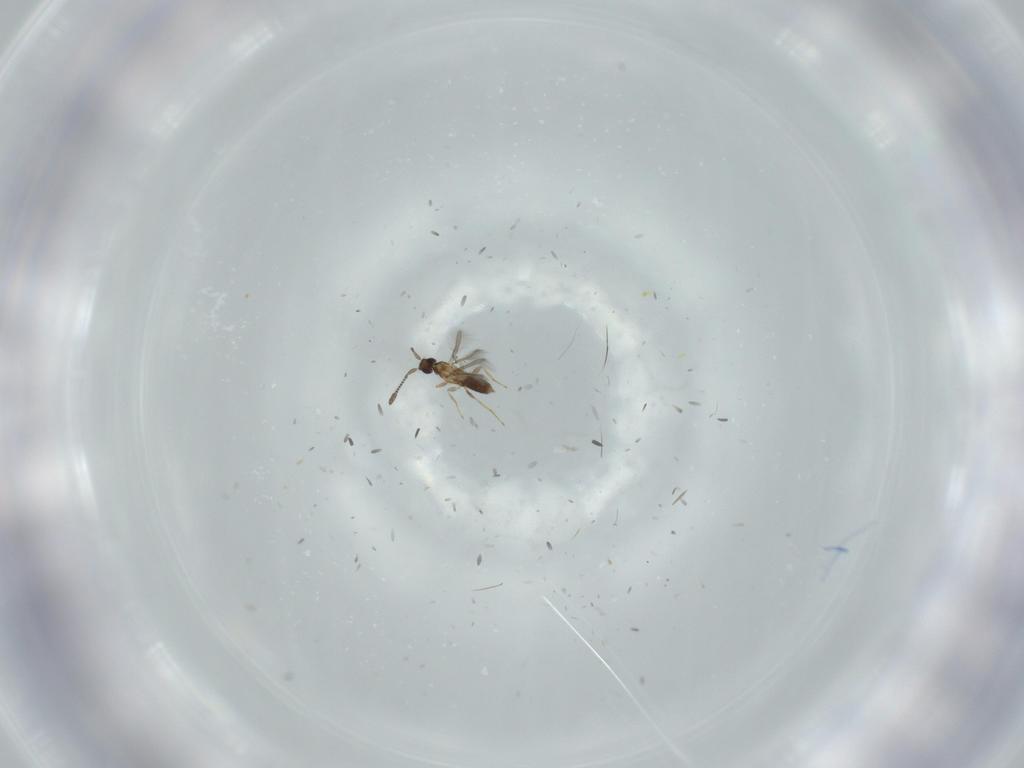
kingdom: Animalia
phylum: Arthropoda
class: Insecta
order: Hymenoptera
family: Mymaridae
